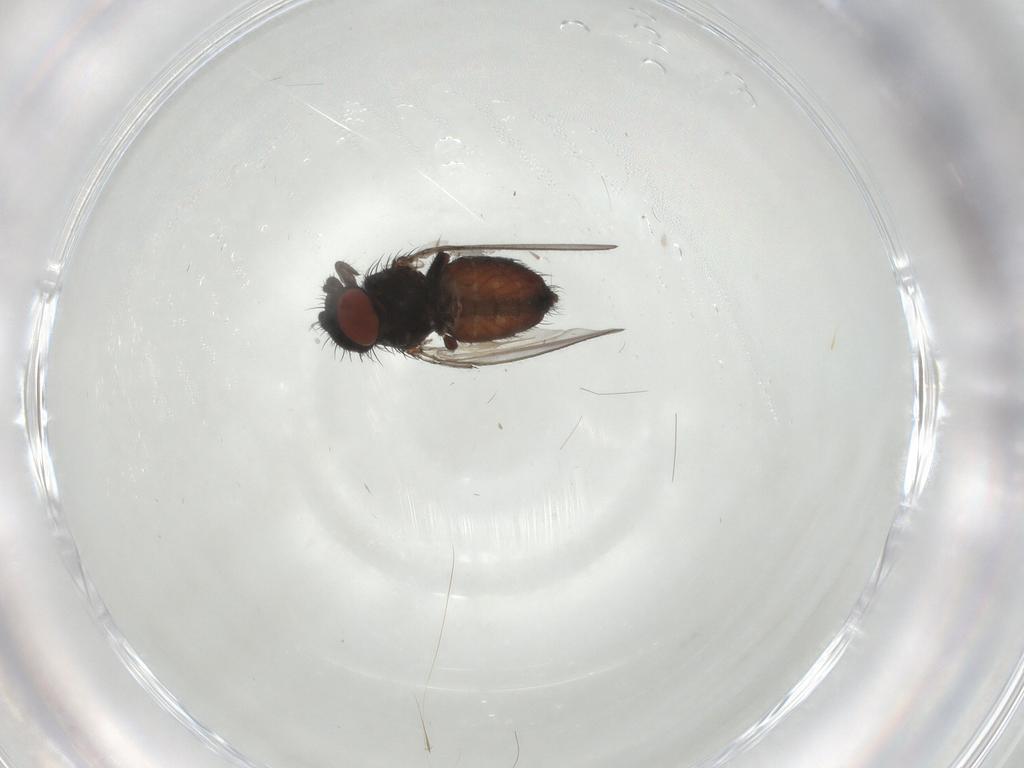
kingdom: Animalia
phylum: Arthropoda
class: Insecta
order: Diptera
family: Milichiidae
